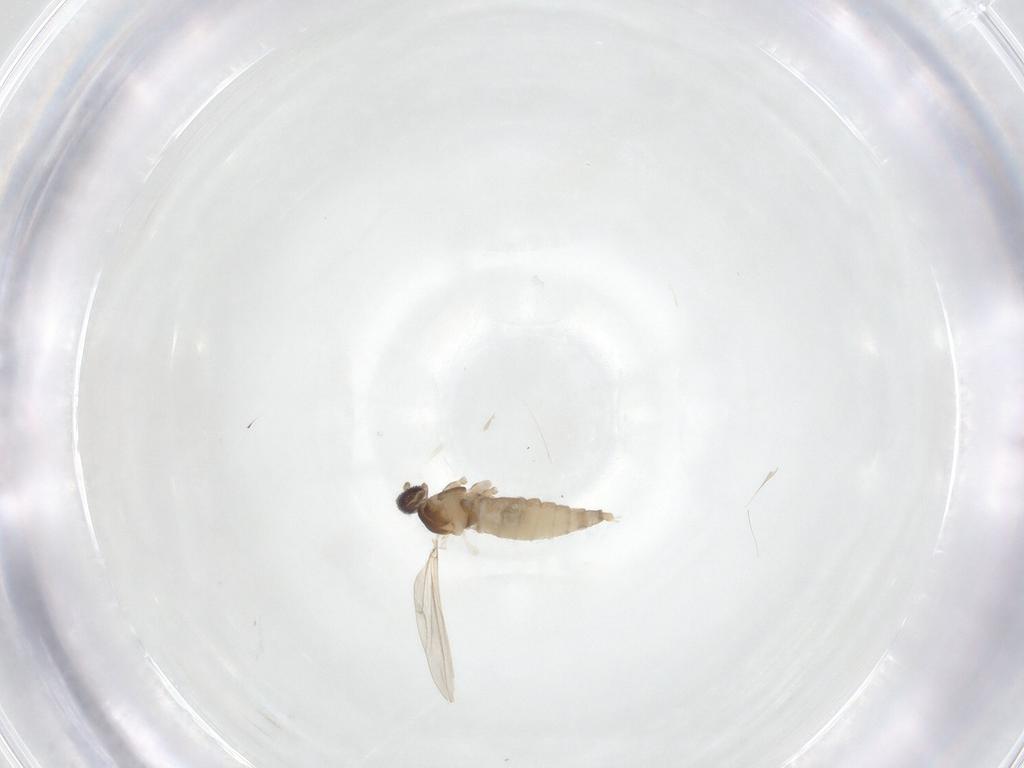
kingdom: Animalia
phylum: Arthropoda
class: Insecta
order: Diptera
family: Cecidomyiidae
